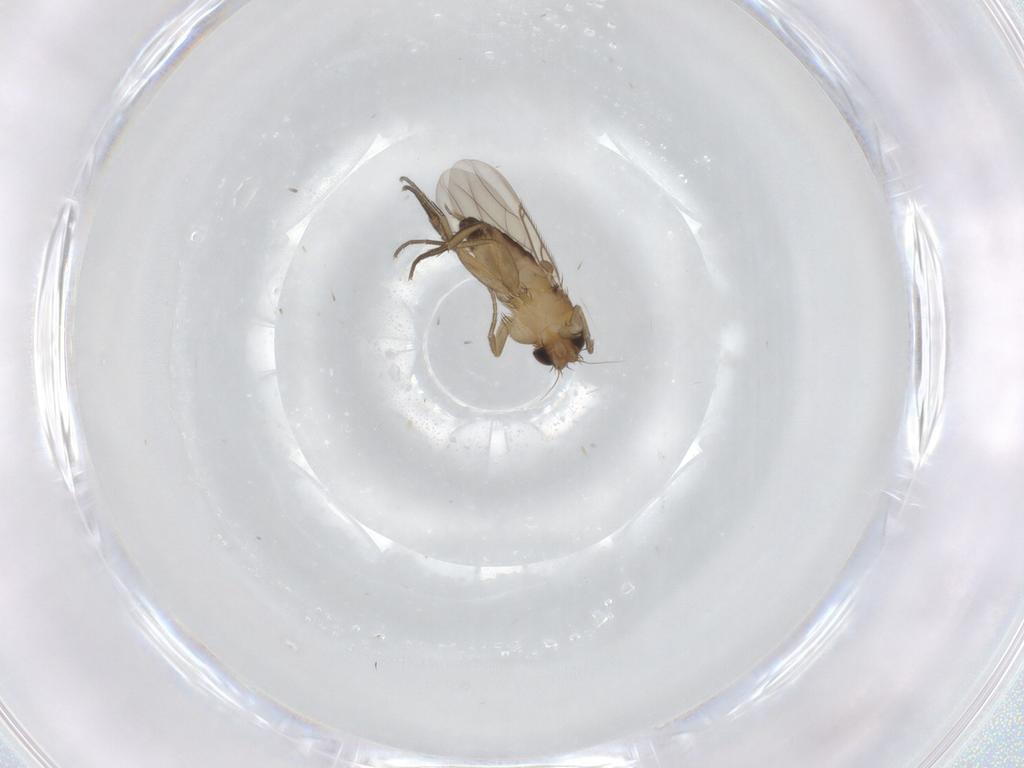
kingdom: Animalia
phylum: Arthropoda
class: Insecta
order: Diptera
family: Phoridae
